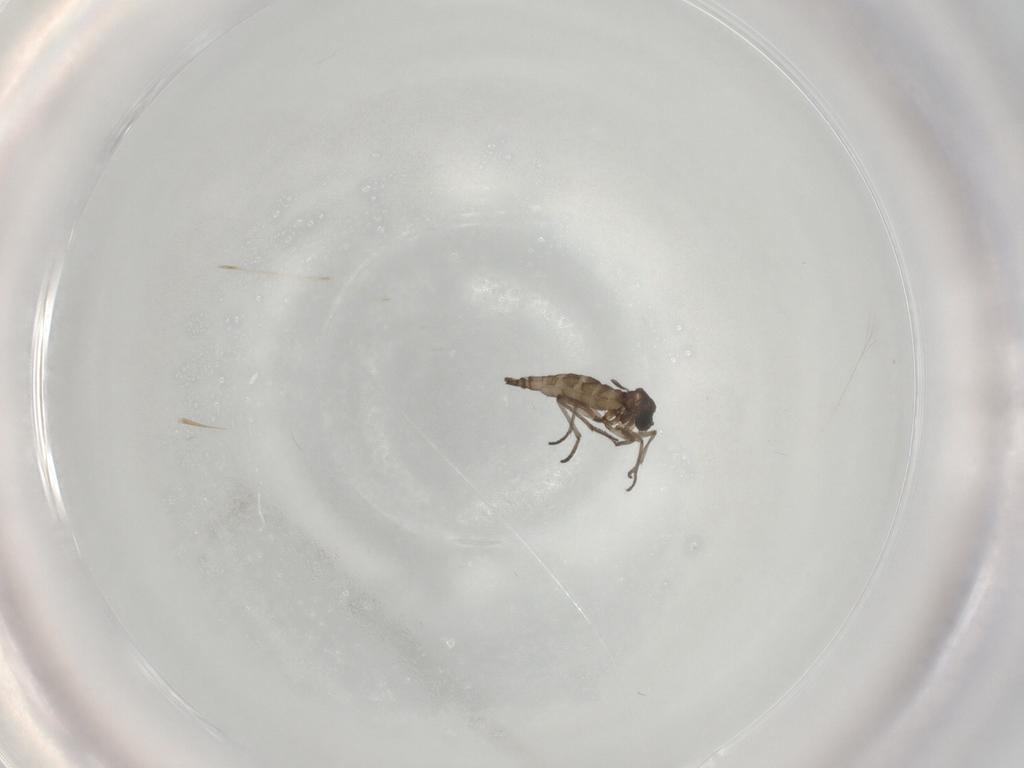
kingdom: Animalia
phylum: Arthropoda
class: Insecta
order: Diptera
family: Sciaridae
